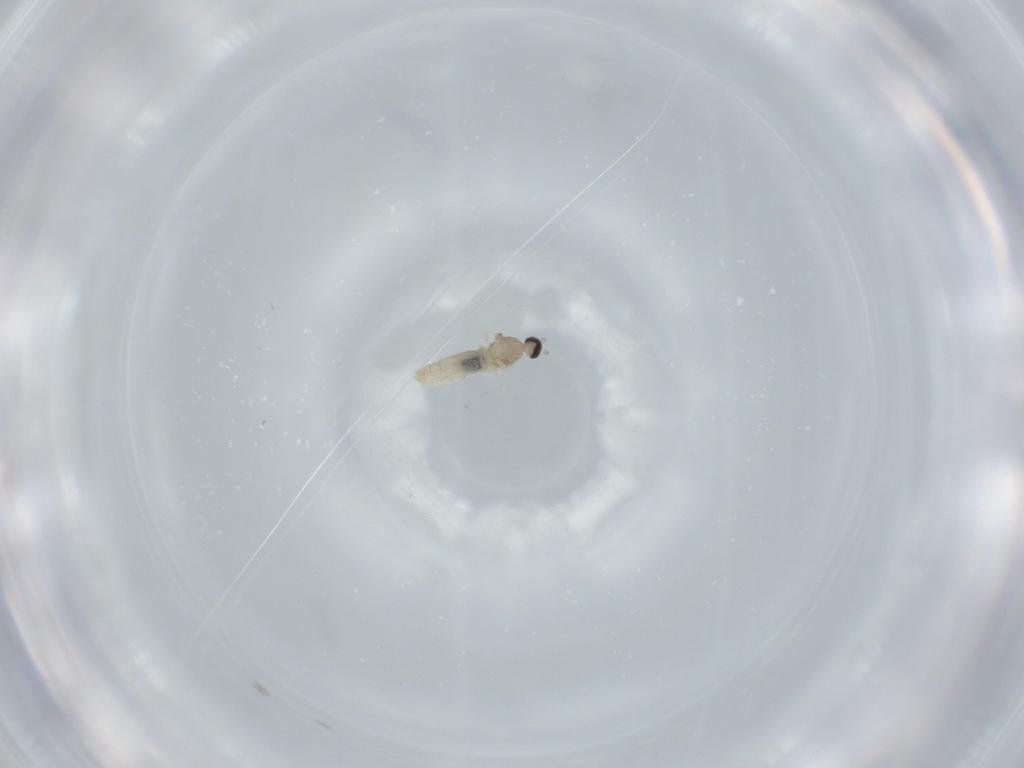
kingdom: Animalia
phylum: Arthropoda
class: Insecta
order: Diptera
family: Cecidomyiidae
